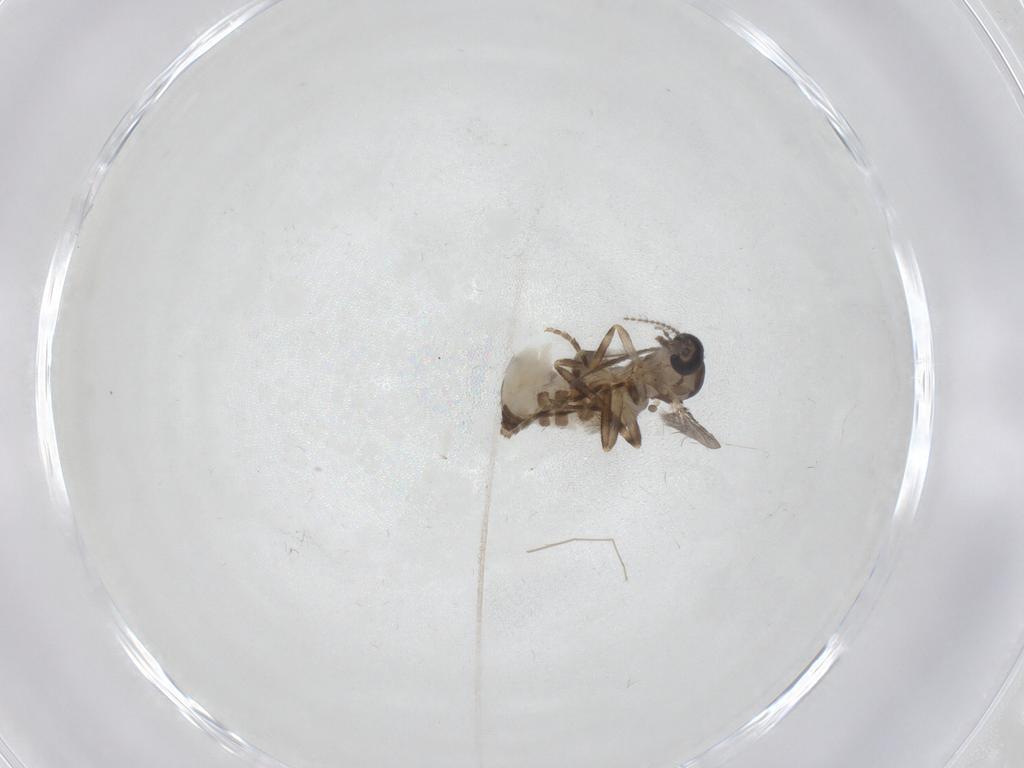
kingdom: Animalia
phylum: Arthropoda
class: Insecta
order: Diptera
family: Ceratopogonidae
